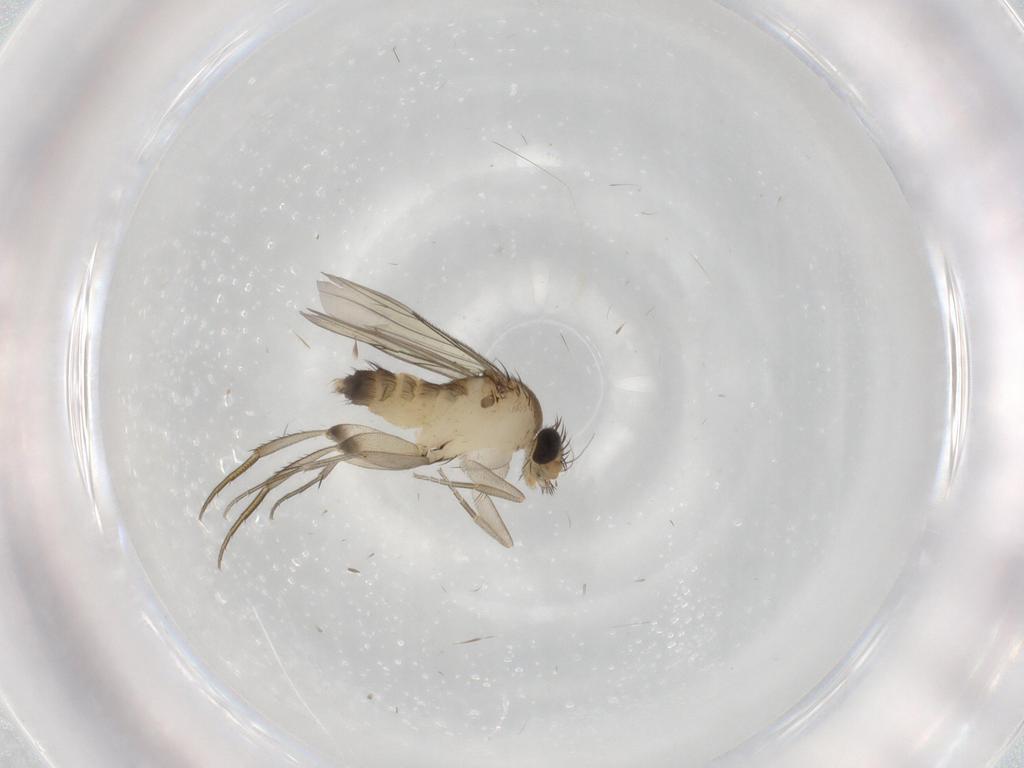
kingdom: Animalia
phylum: Arthropoda
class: Insecta
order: Diptera
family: Phoridae
